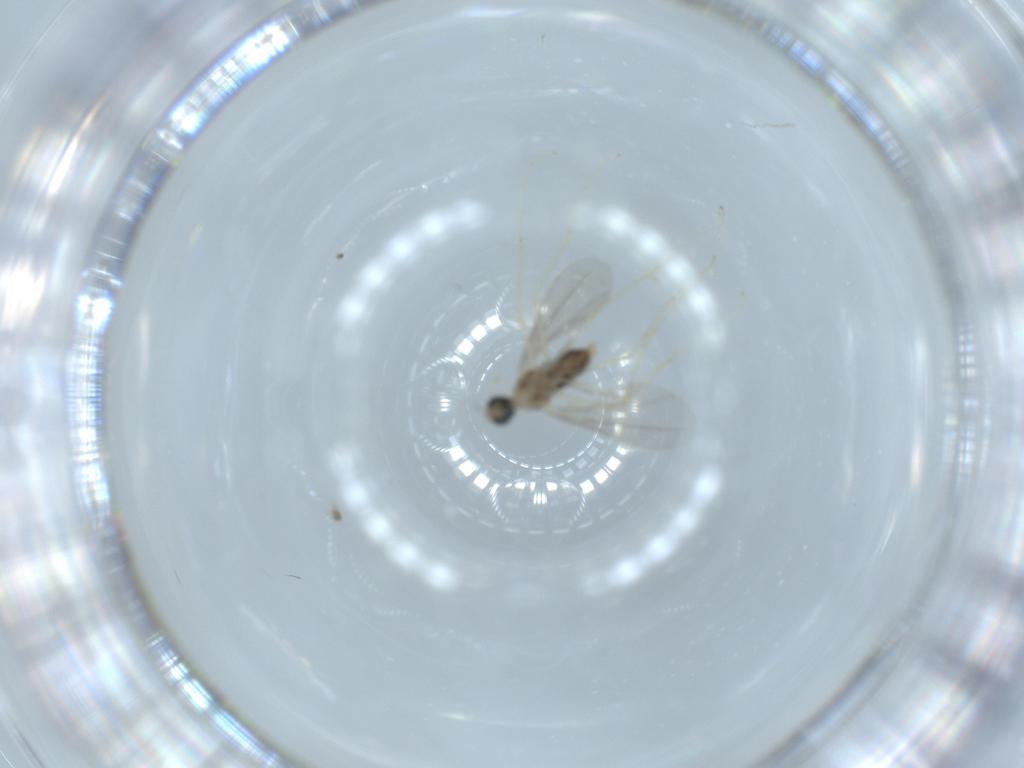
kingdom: Animalia
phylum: Arthropoda
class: Insecta
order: Diptera
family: Cecidomyiidae
